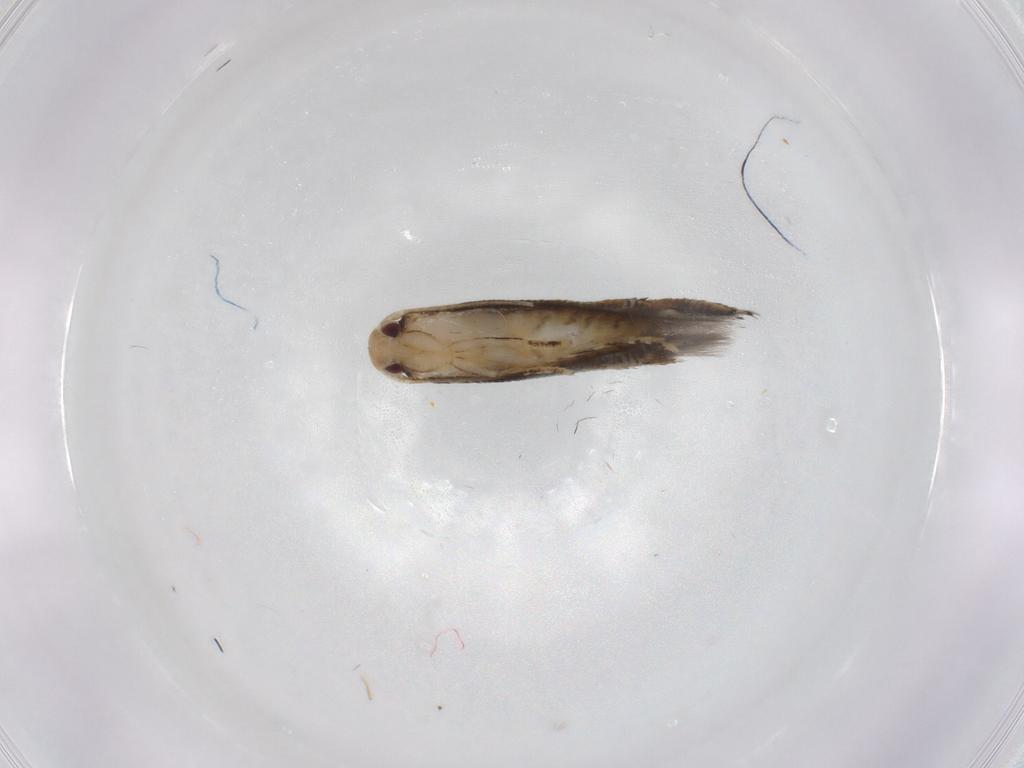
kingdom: Animalia
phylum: Arthropoda
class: Insecta
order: Lepidoptera
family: Momphidae
